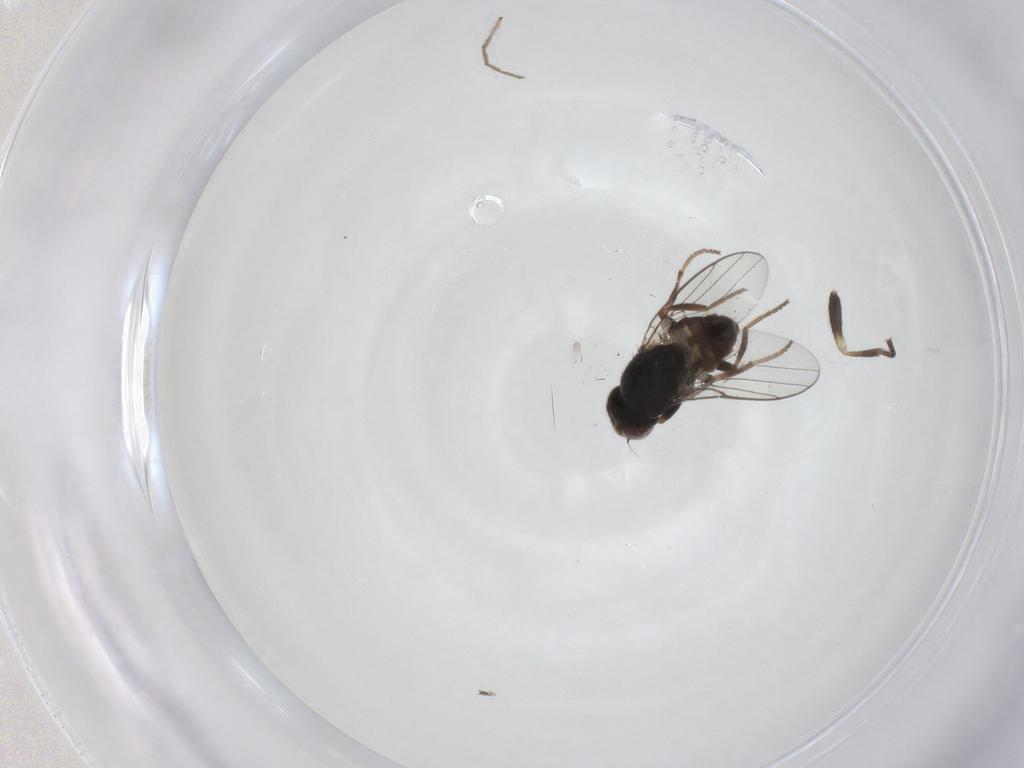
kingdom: Animalia
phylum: Arthropoda
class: Insecta
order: Diptera
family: Chloropidae
